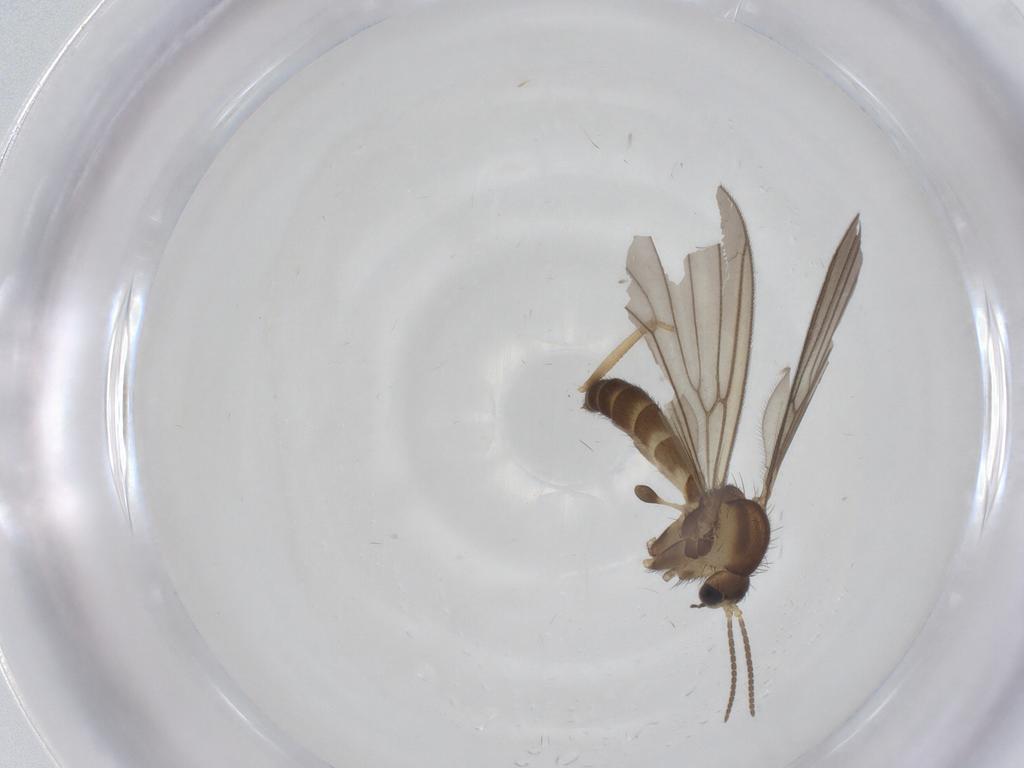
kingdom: Animalia
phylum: Arthropoda
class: Insecta
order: Diptera
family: Mycetophilidae
